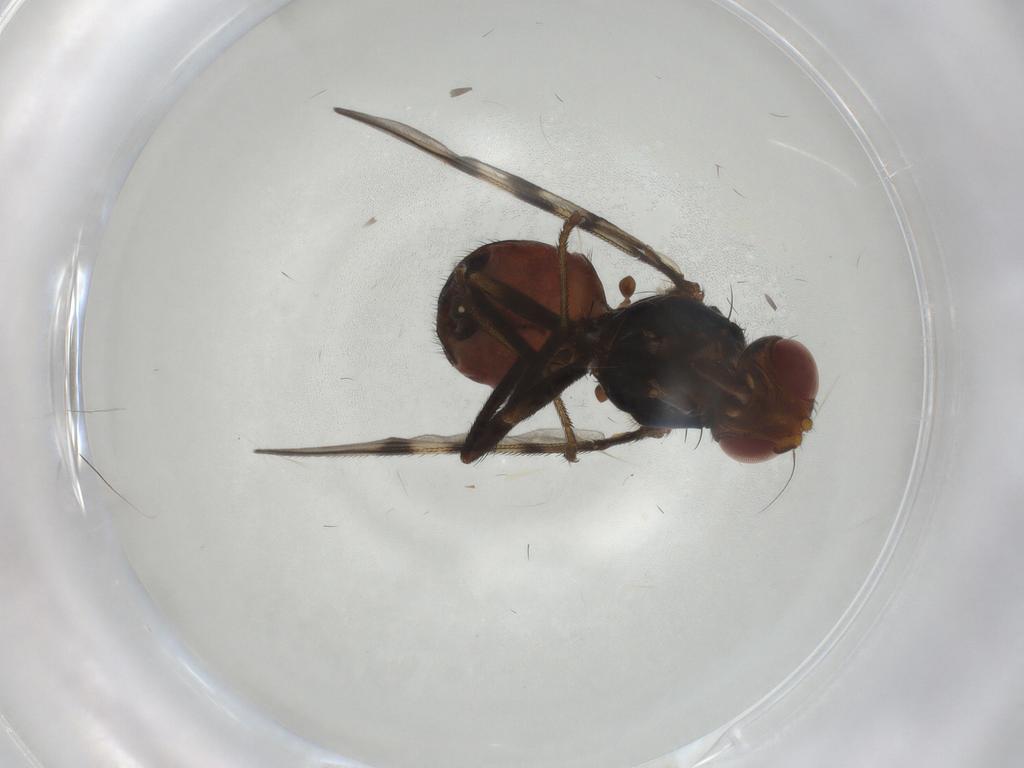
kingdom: Animalia
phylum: Arthropoda
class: Insecta
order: Diptera
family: Platystomatidae
